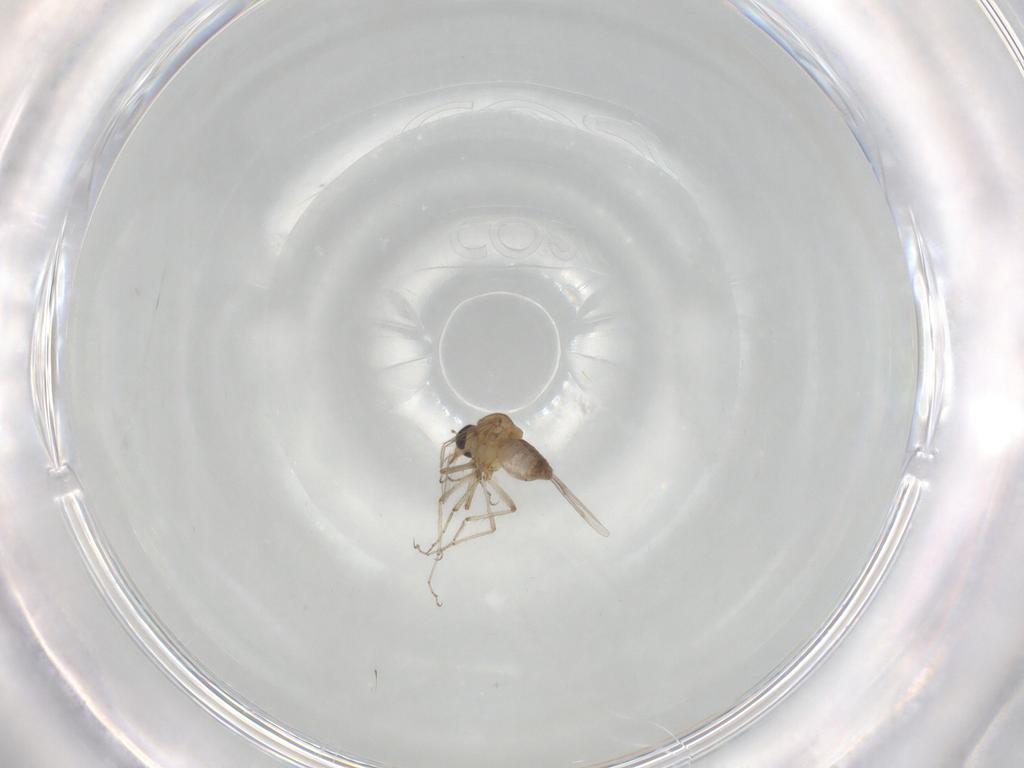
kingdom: Animalia
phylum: Arthropoda
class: Insecta
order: Diptera
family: Ceratopogonidae
